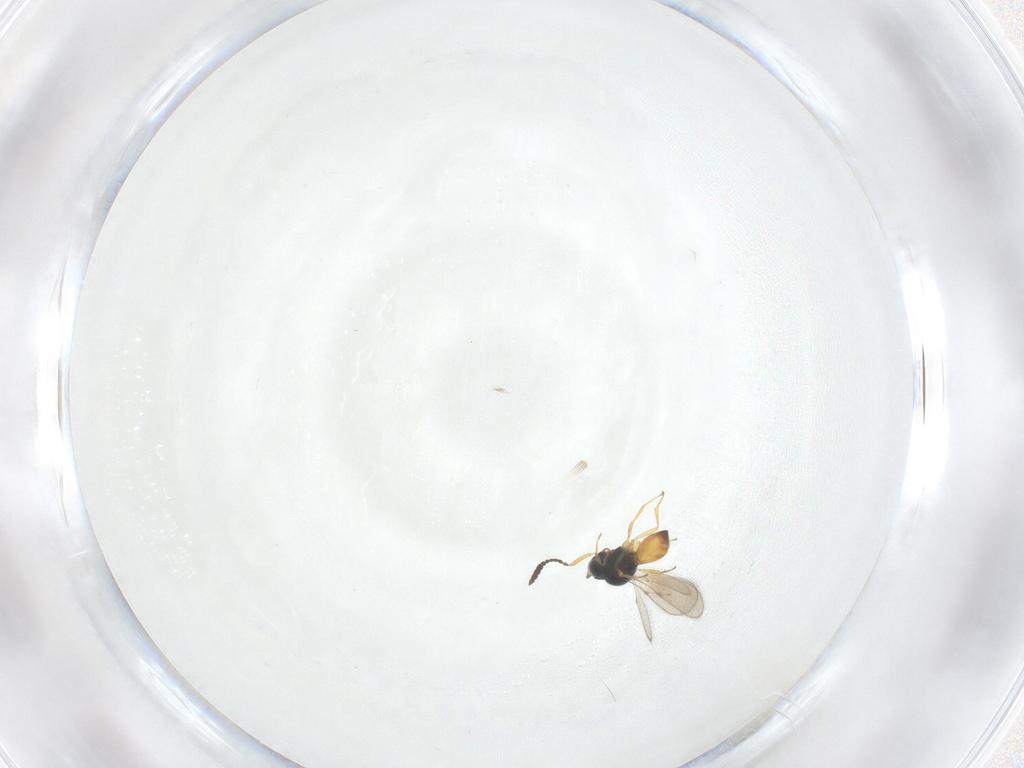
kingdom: Animalia
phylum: Arthropoda
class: Insecta
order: Hymenoptera
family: Scelionidae
